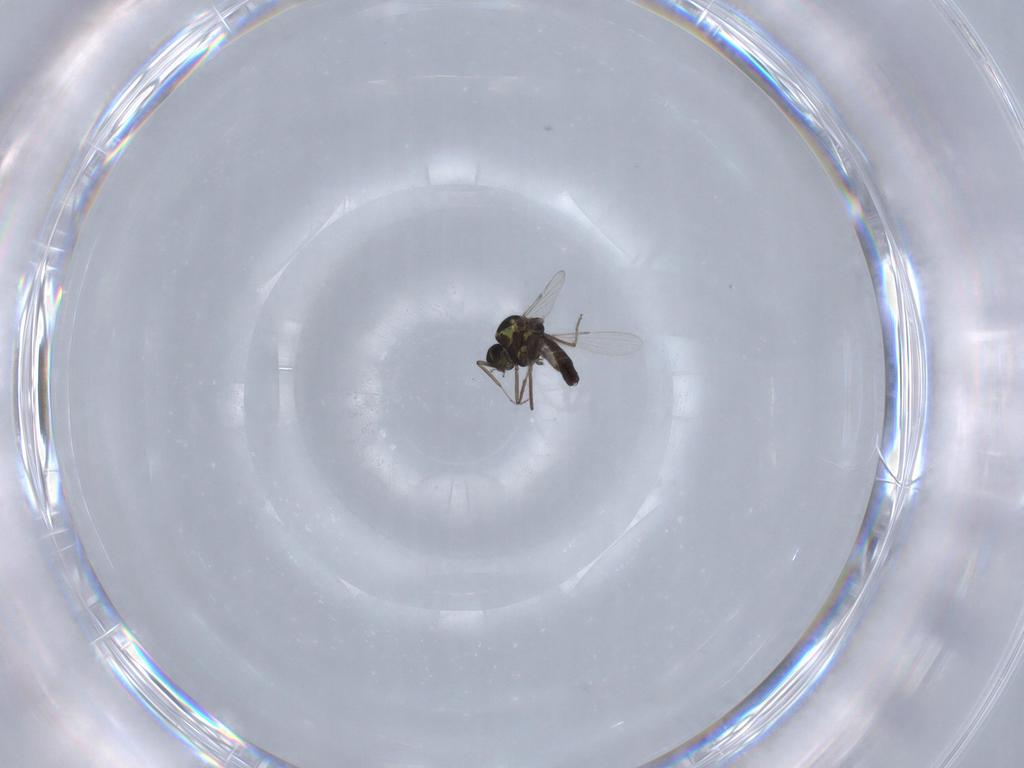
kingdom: Animalia
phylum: Arthropoda
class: Insecta
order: Diptera
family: Ceratopogonidae
